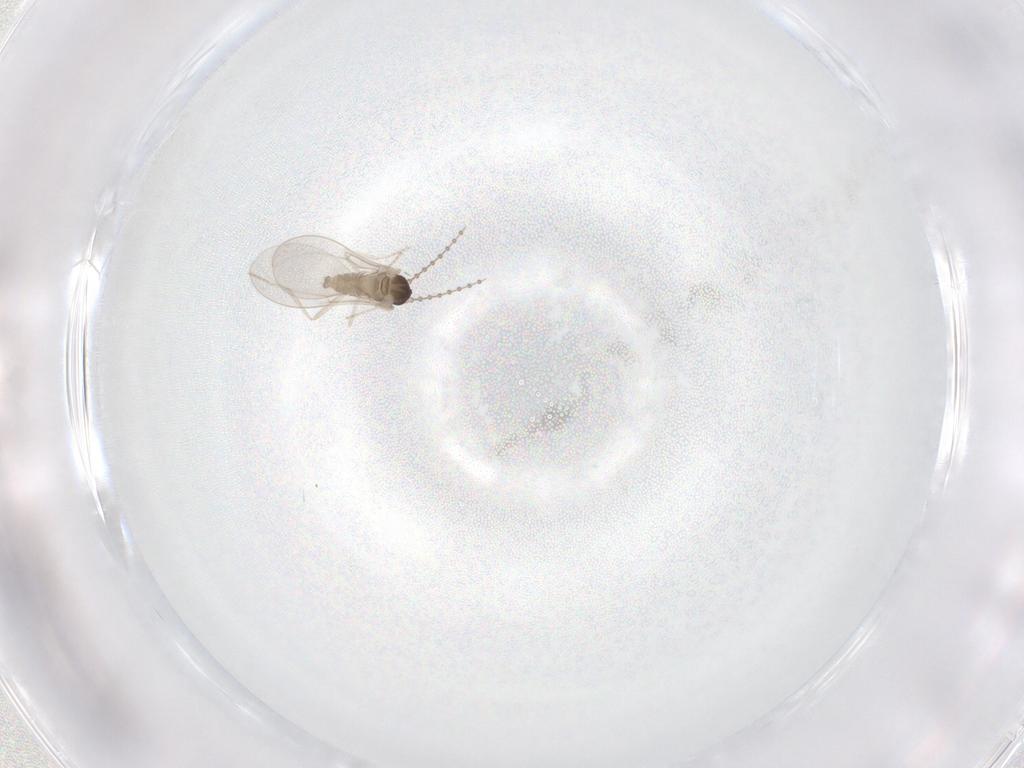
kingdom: Animalia
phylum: Arthropoda
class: Insecta
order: Diptera
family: Cecidomyiidae
